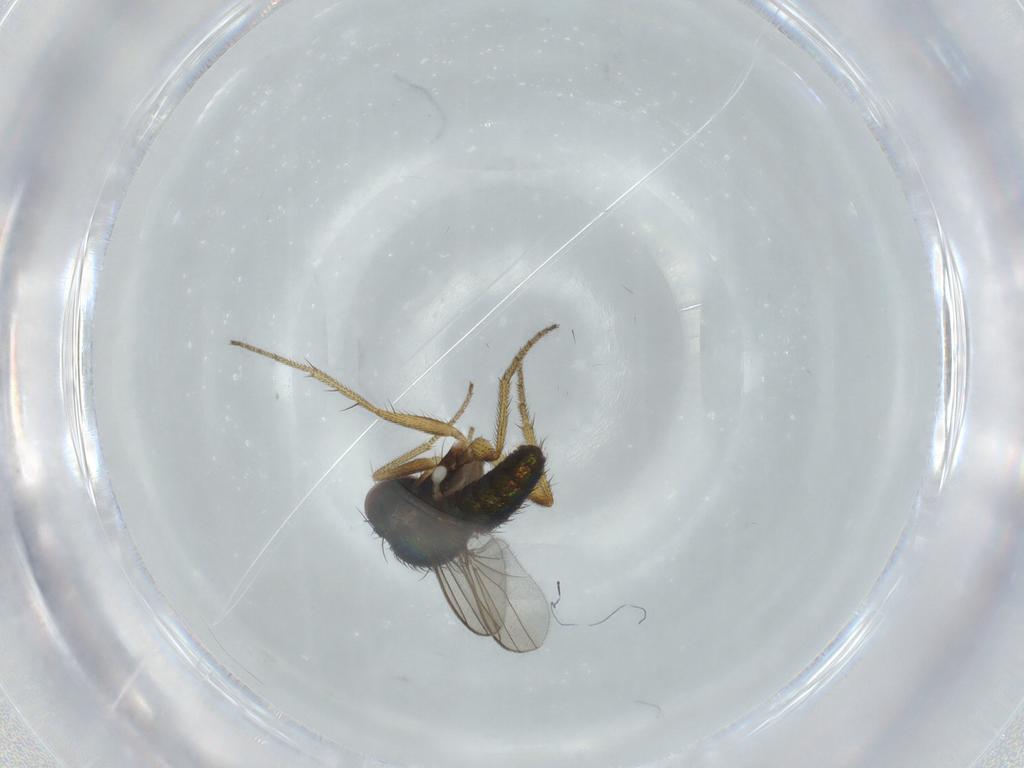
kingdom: Animalia
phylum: Arthropoda
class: Insecta
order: Diptera
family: Dolichopodidae
